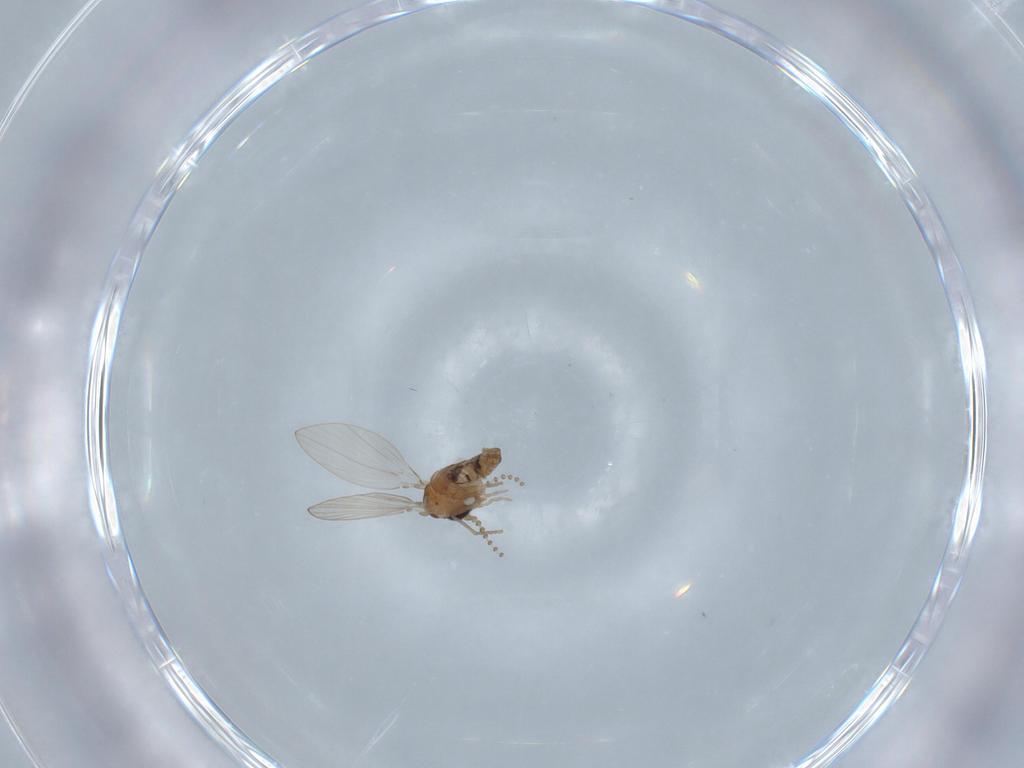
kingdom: Animalia
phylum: Arthropoda
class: Insecta
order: Diptera
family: Psychodidae
